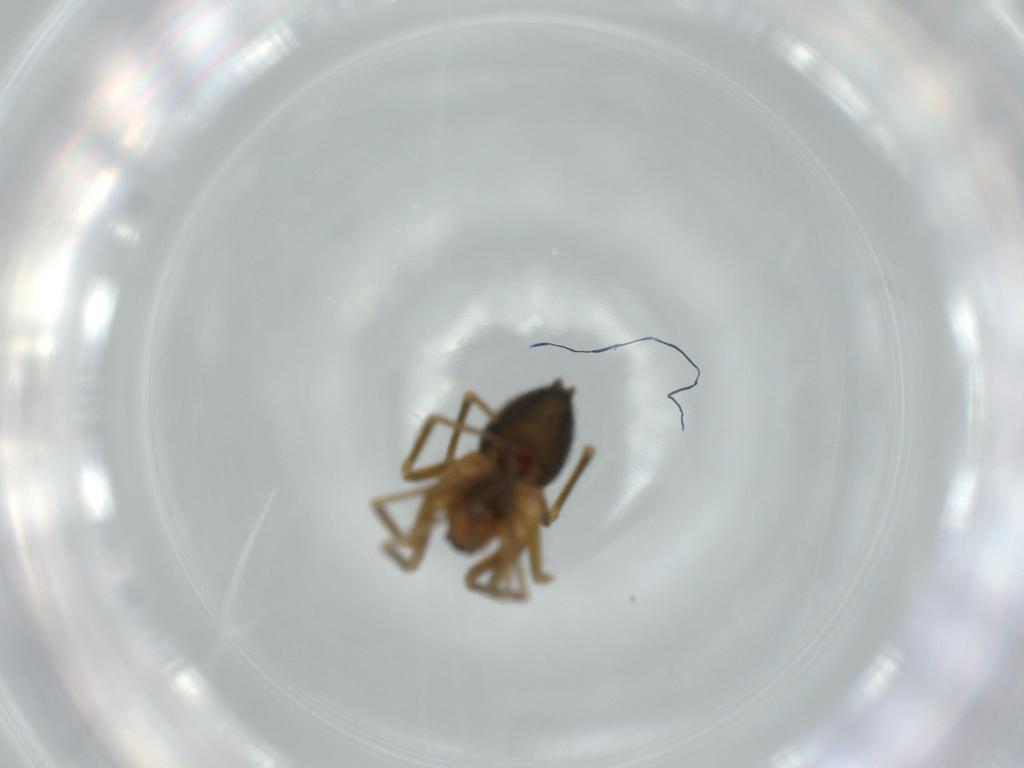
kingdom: Animalia
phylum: Arthropoda
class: Arachnida
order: Araneae
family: Linyphiidae
